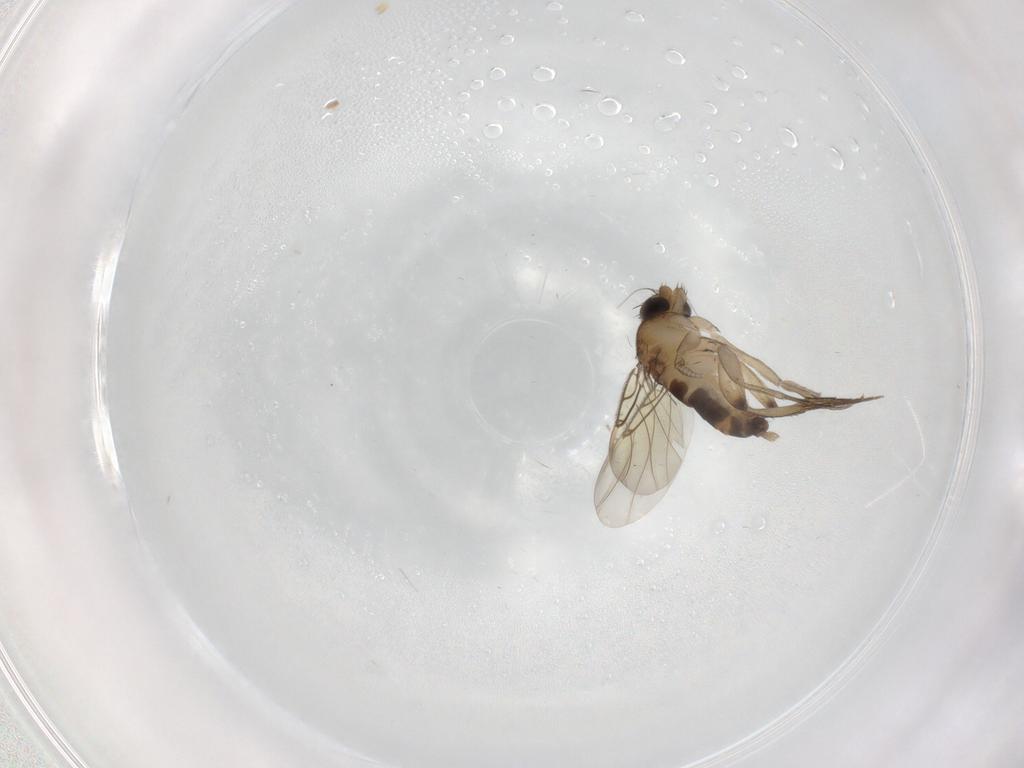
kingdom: Animalia
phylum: Arthropoda
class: Insecta
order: Diptera
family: Phoridae
